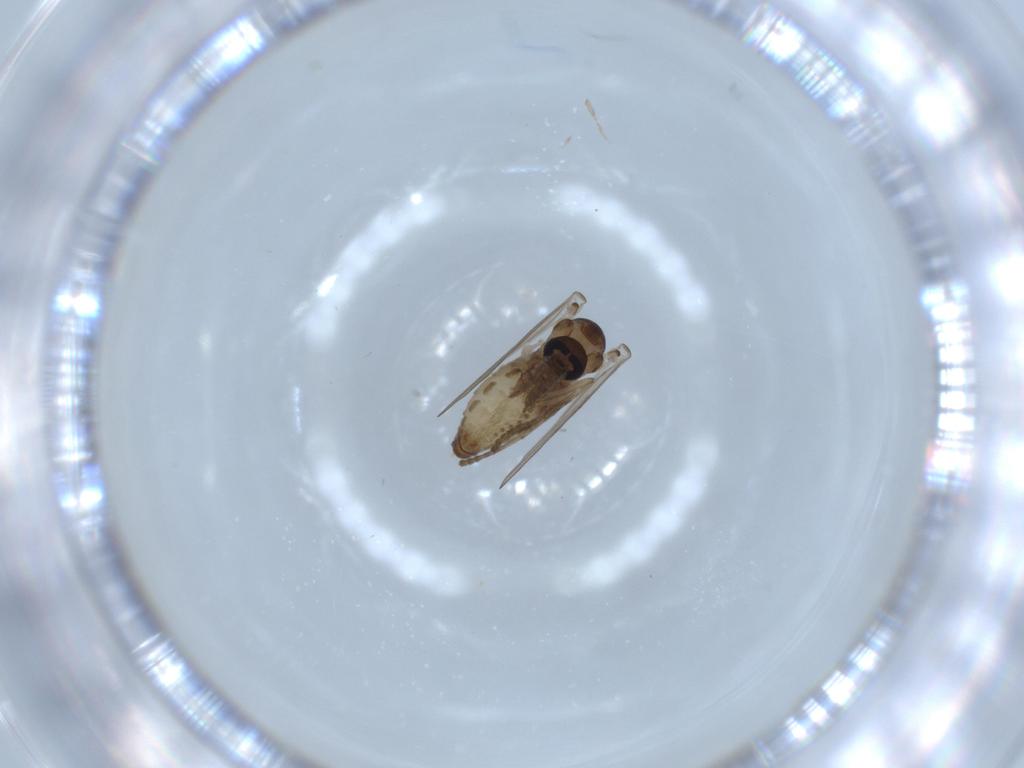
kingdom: Animalia
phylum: Arthropoda
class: Insecta
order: Diptera
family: Psychodidae
